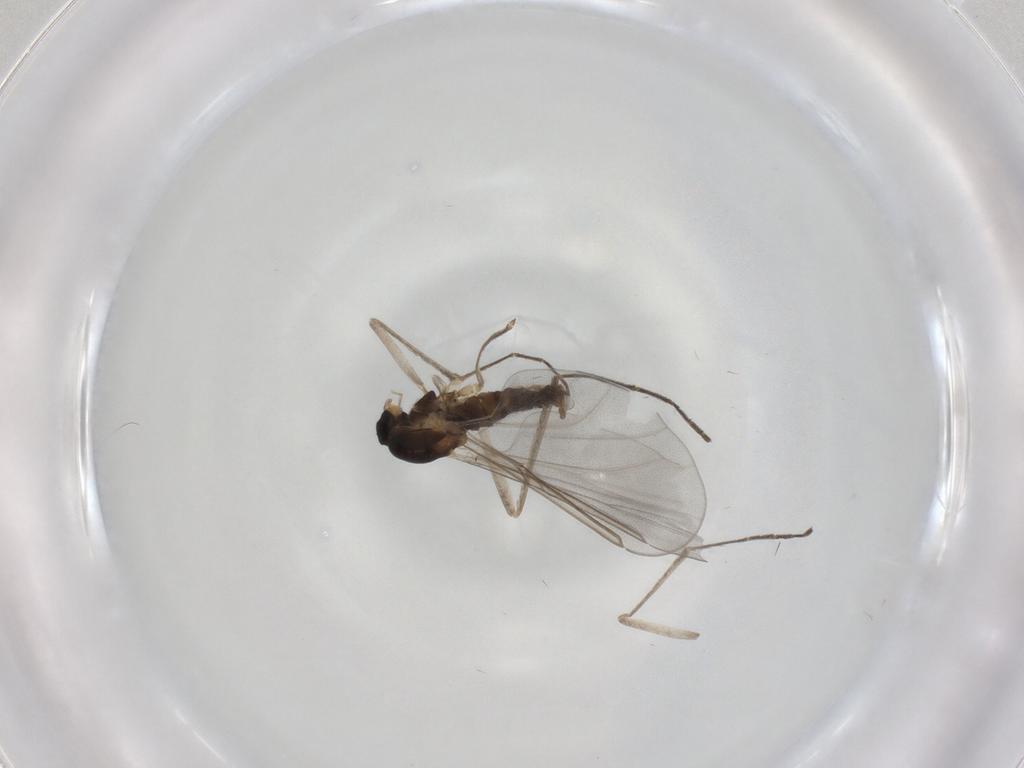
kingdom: Animalia
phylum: Arthropoda
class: Insecta
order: Diptera
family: Cecidomyiidae
